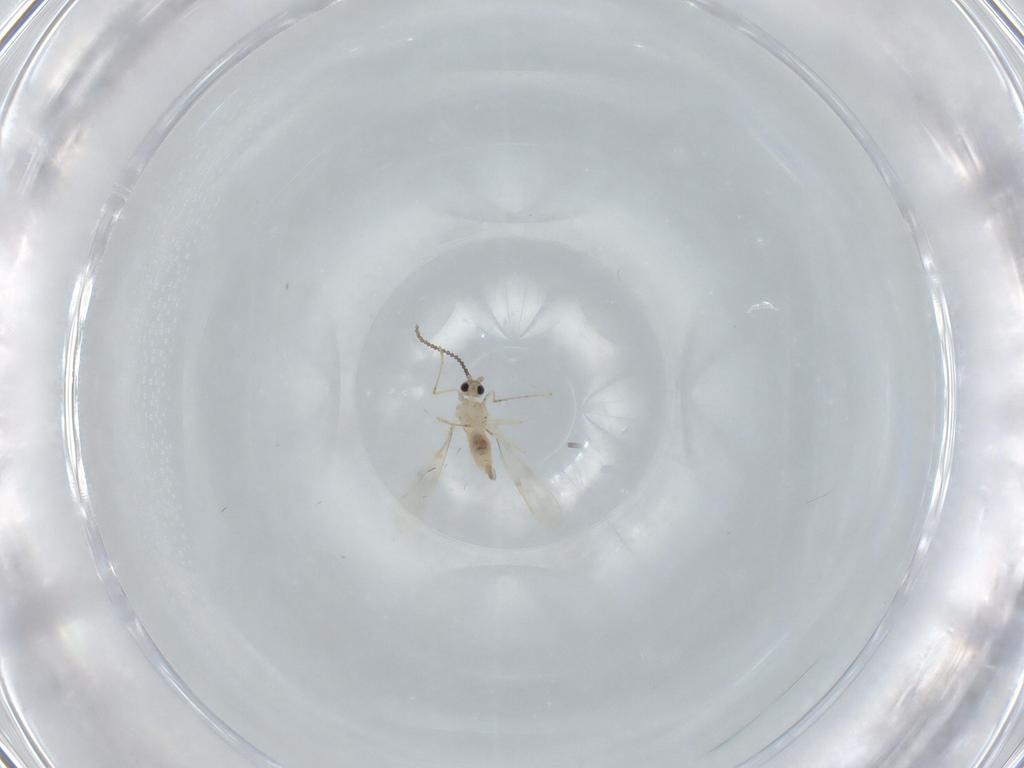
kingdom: Animalia
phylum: Arthropoda
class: Insecta
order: Diptera
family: Cecidomyiidae
